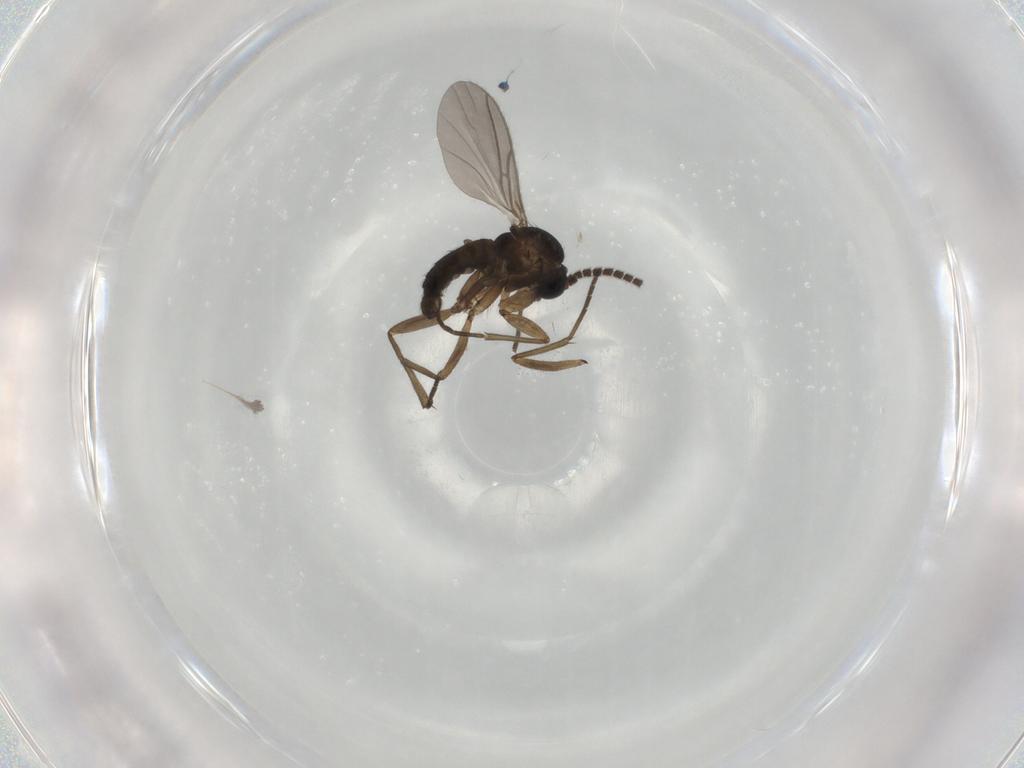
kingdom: Animalia
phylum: Arthropoda
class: Insecta
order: Diptera
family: Sciaridae
